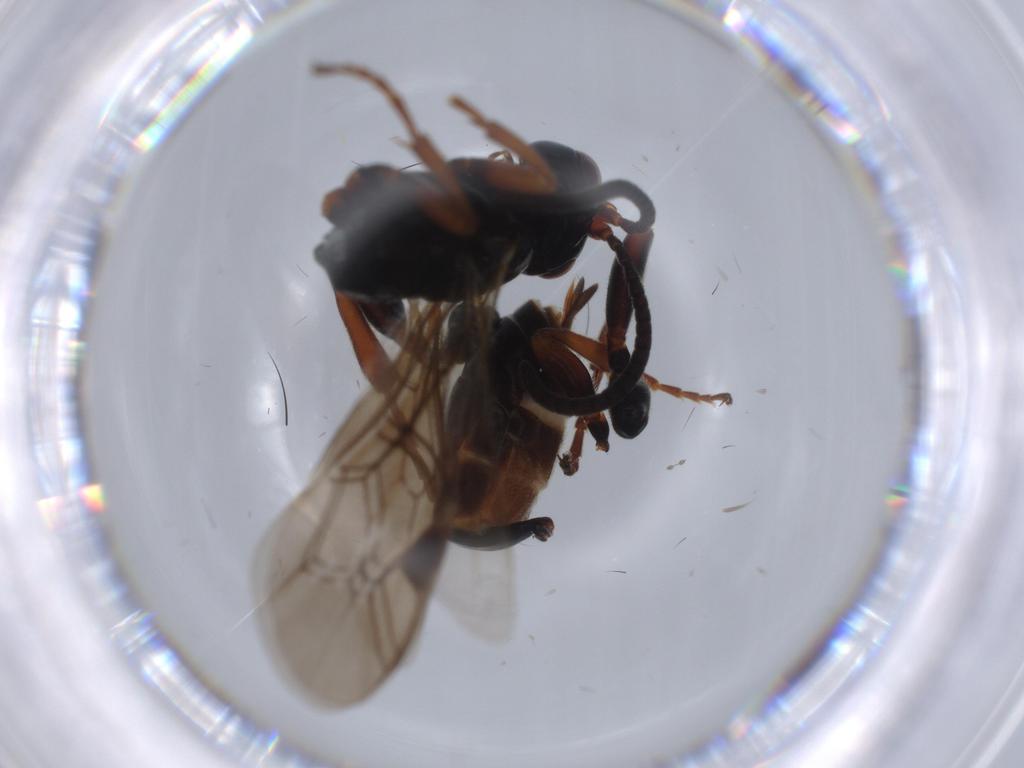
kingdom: Animalia
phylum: Arthropoda
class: Insecta
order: Hymenoptera
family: Ichneumonidae
